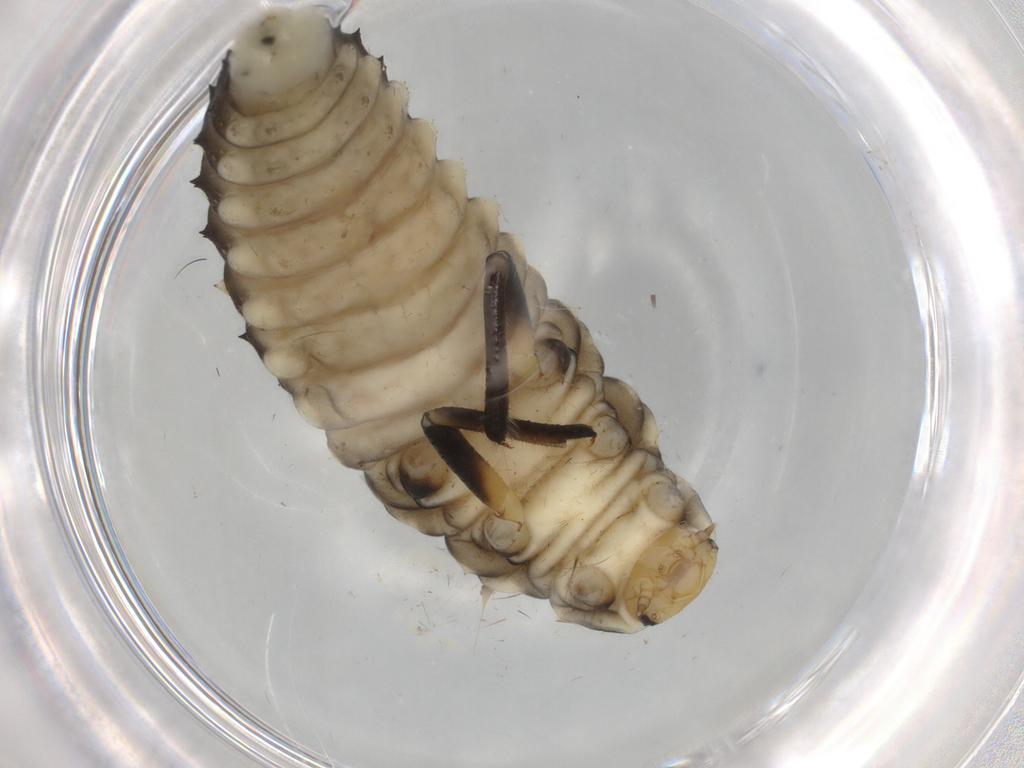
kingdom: Animalia
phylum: Arthropoda
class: Insecta
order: Coleoptera
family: Coccinellidae
